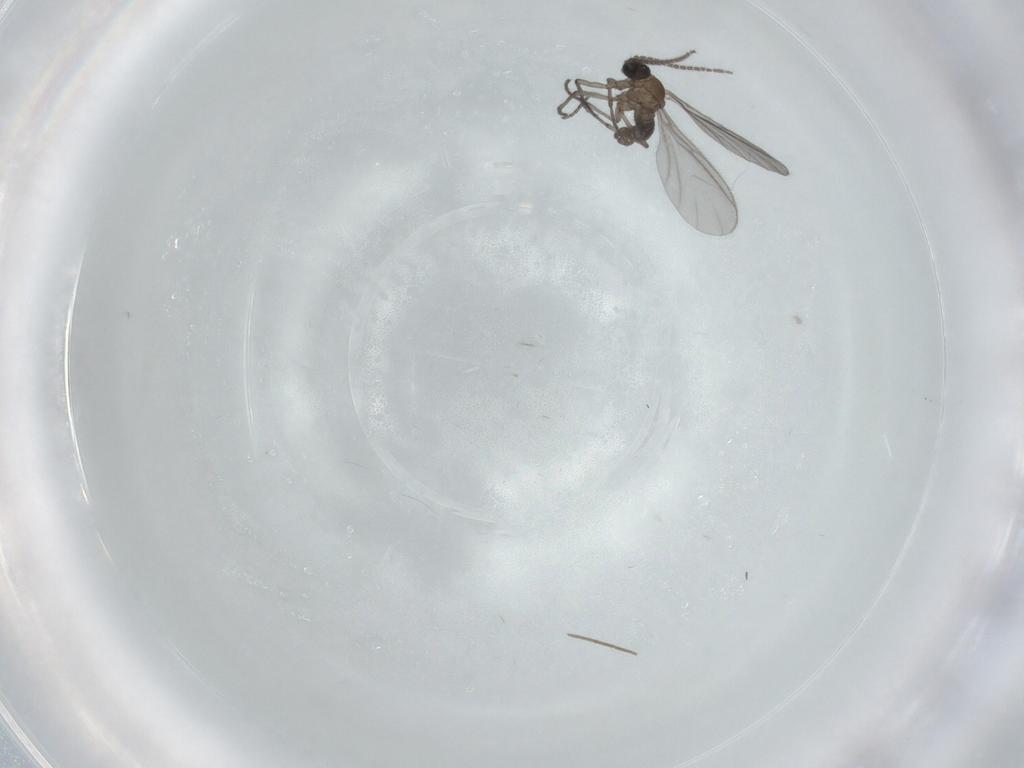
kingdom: Animalia
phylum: Arthropoda
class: Insecta
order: Diptera
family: Sciaridae
